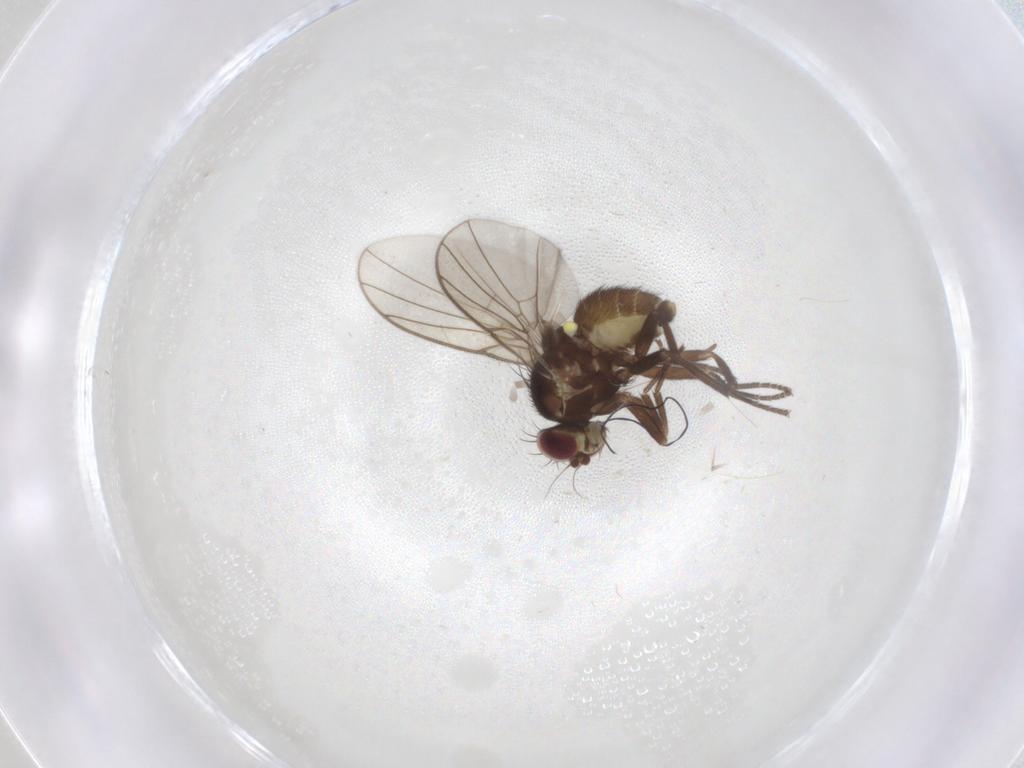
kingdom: Animalia
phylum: Arthropoda
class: Insecta
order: Diptera
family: Agromyzidae
